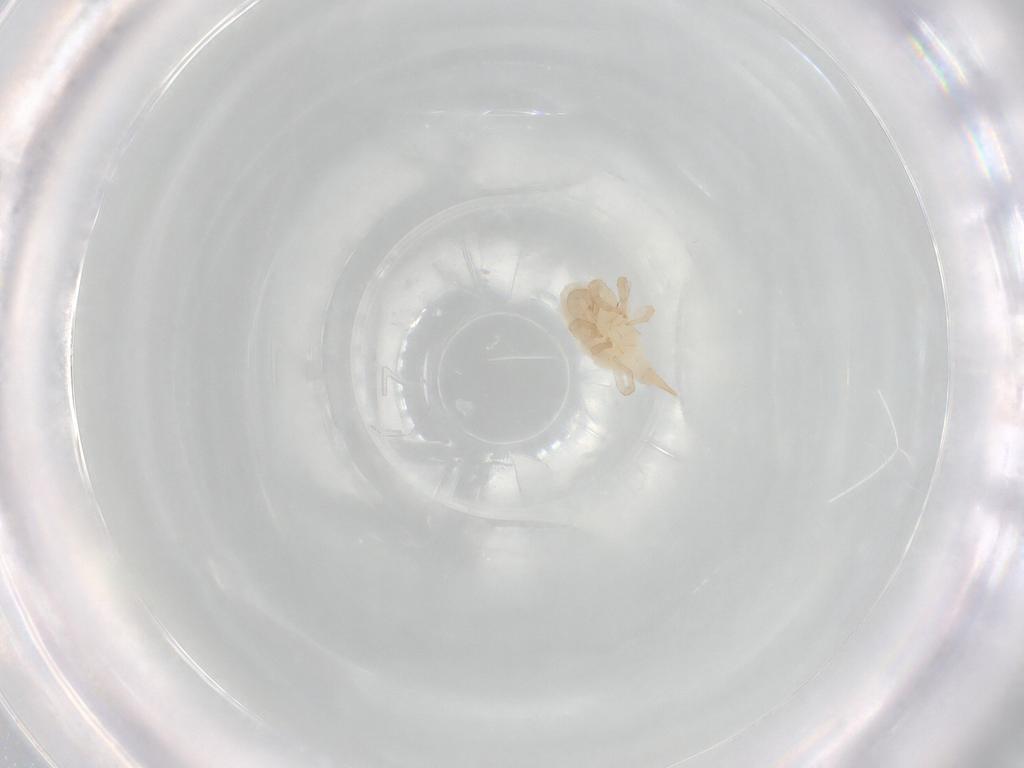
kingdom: Animalia
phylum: Arthropoda
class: Arachnida
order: Trombidiformes
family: Bdellidae
